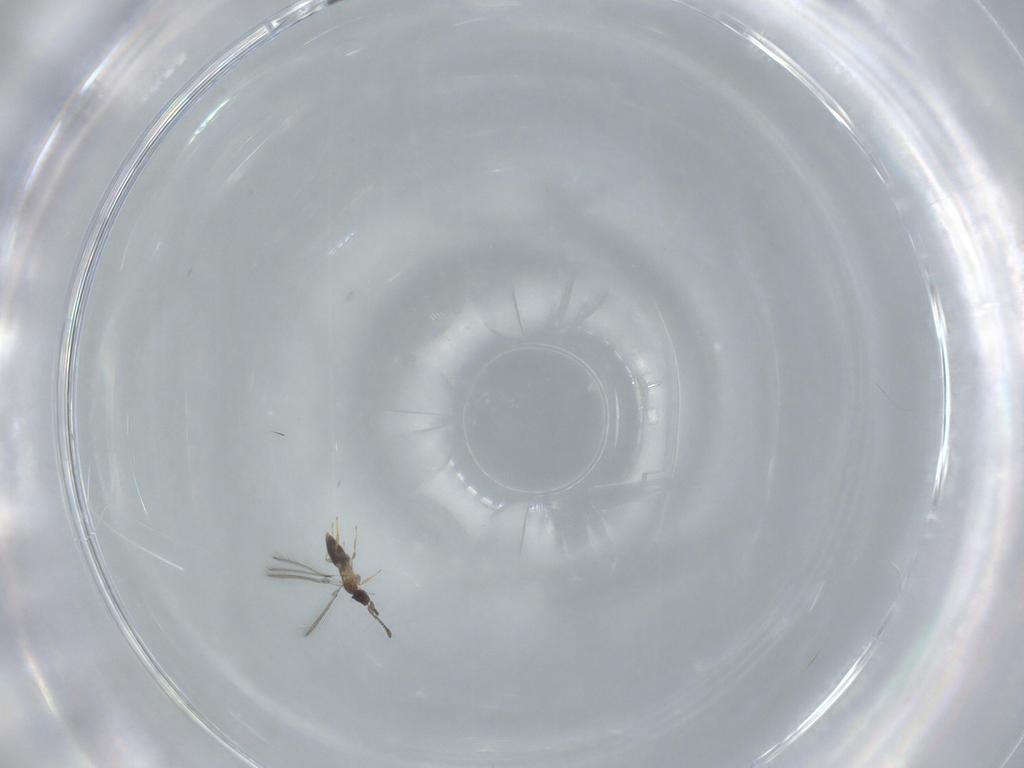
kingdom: Animalia
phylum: Arthropoda
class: Insecta
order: Hymenoptera
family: Mymaridae
